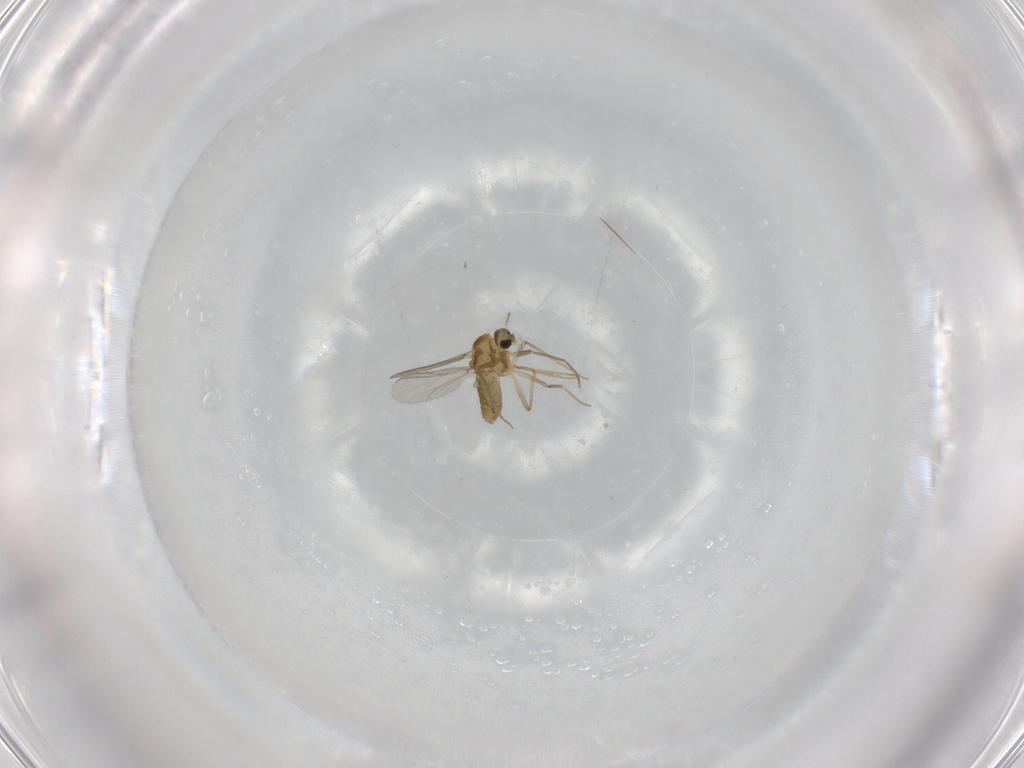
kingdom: Animalia
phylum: Arthropoda
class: Insecta
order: Diptera
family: Chironomidae
